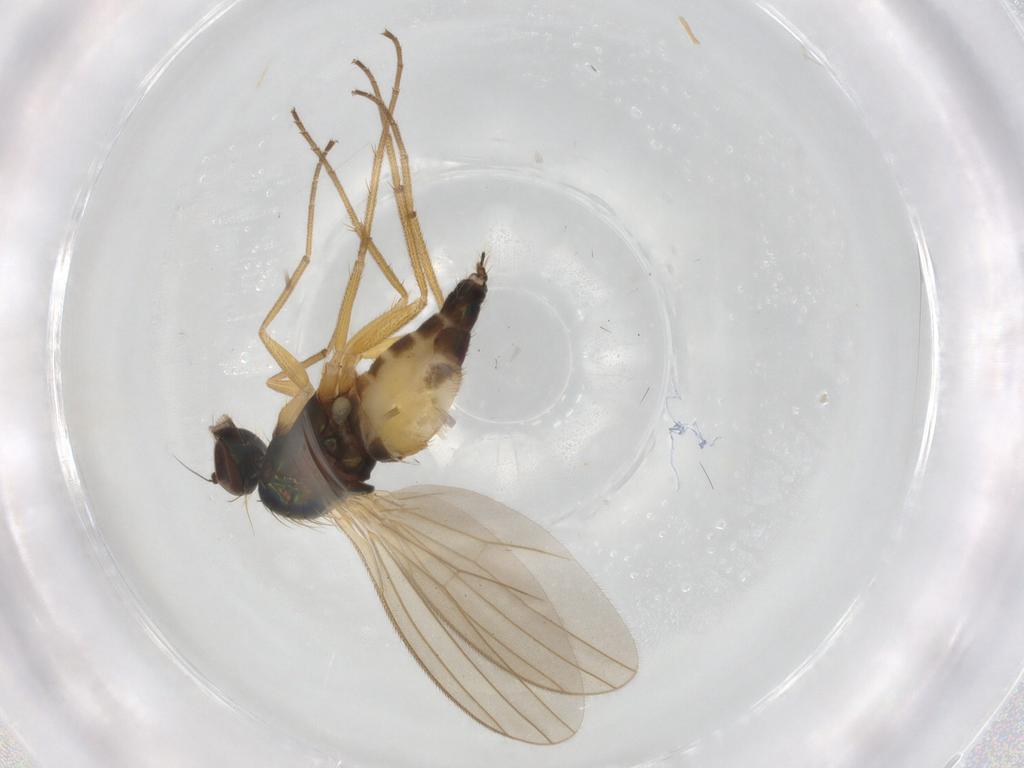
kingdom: Animalia
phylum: Arthropoda
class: Insecta
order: Diptera
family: Dolichopodidae
